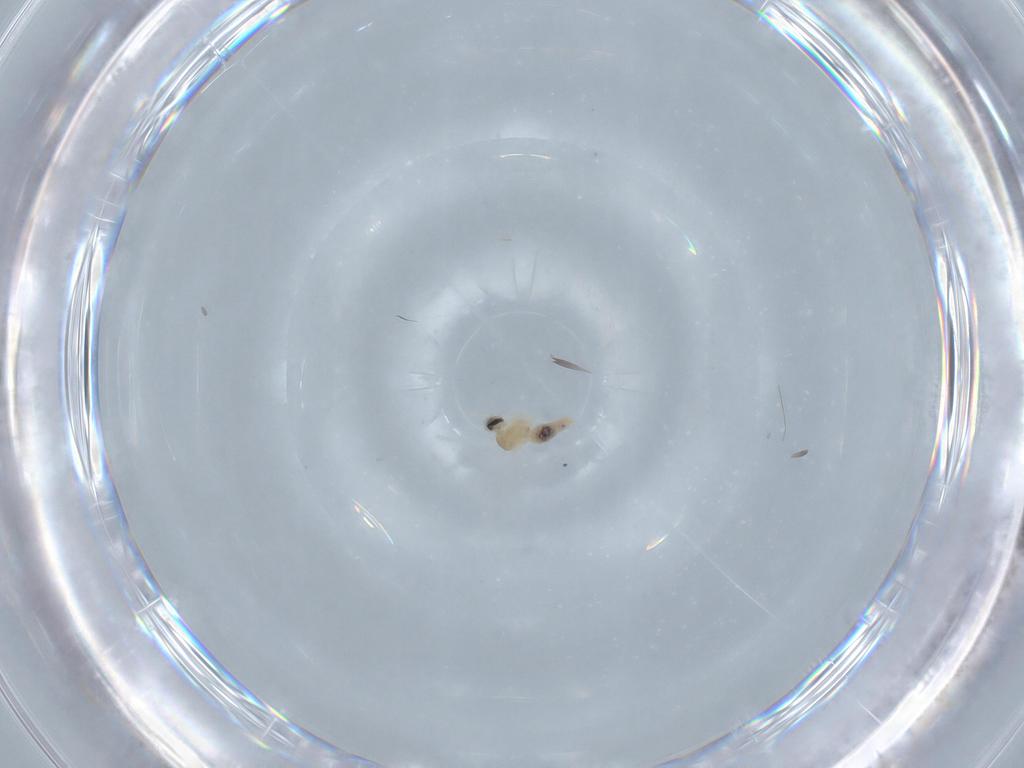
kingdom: Animalia
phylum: Arthropoda
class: Insecta
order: Diptera
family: Cecidomyiidae
